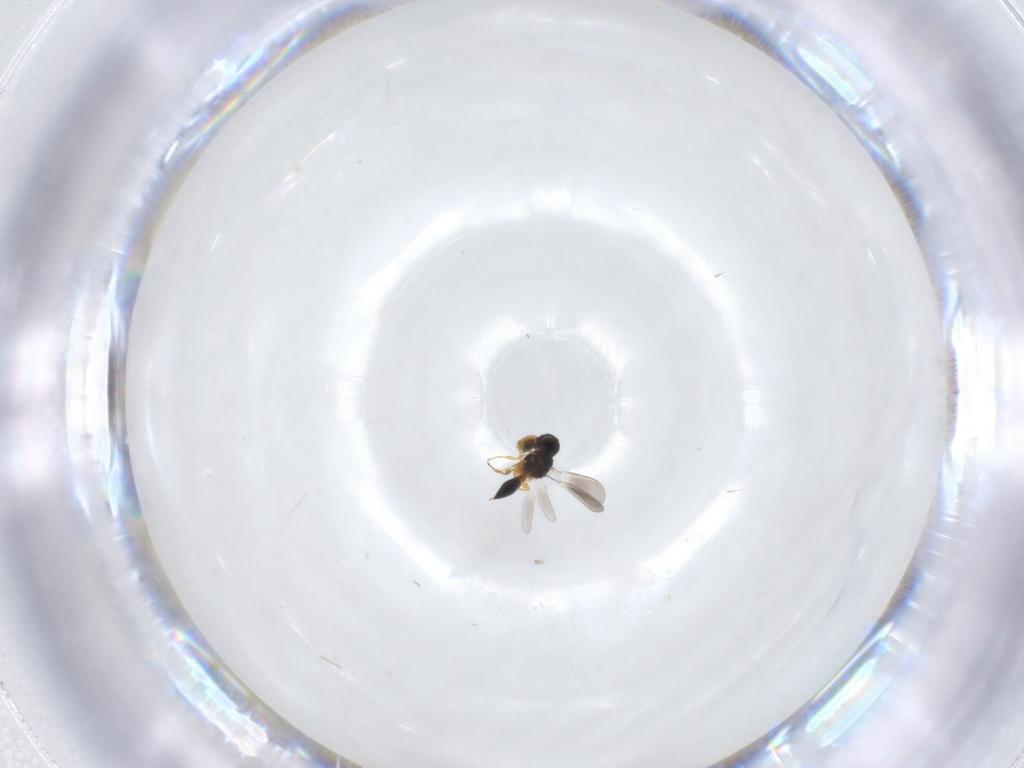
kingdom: Animalia
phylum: Arthropoda
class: Insecta
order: Hymenoptera
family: Platygastridae
